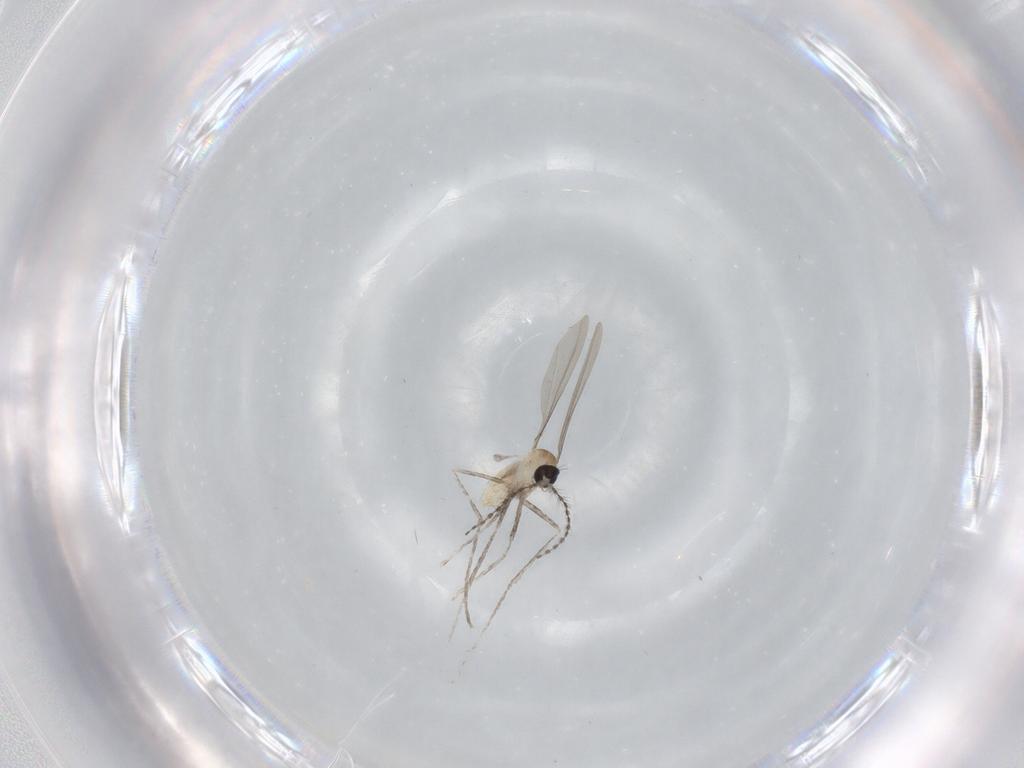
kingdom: Animalia
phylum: Arthropoda
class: Insecta
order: Diptera
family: Cecidomyiidae
